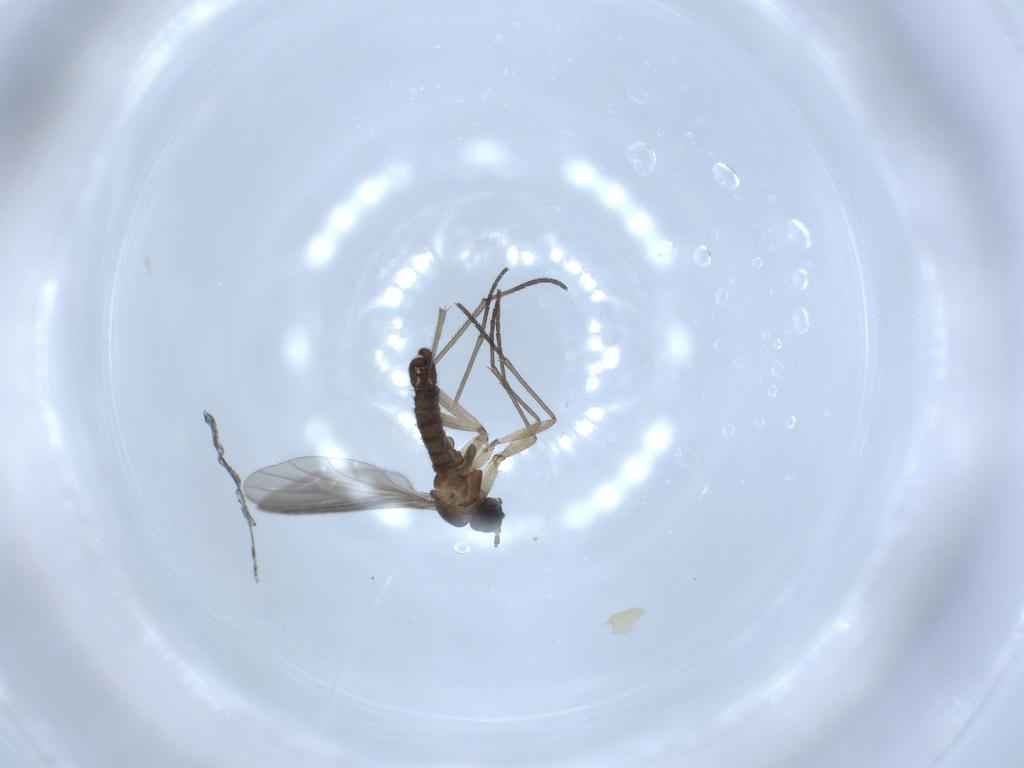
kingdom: Animalia
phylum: Arthropoda
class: Insecta
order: Diptera
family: Sciaridae
